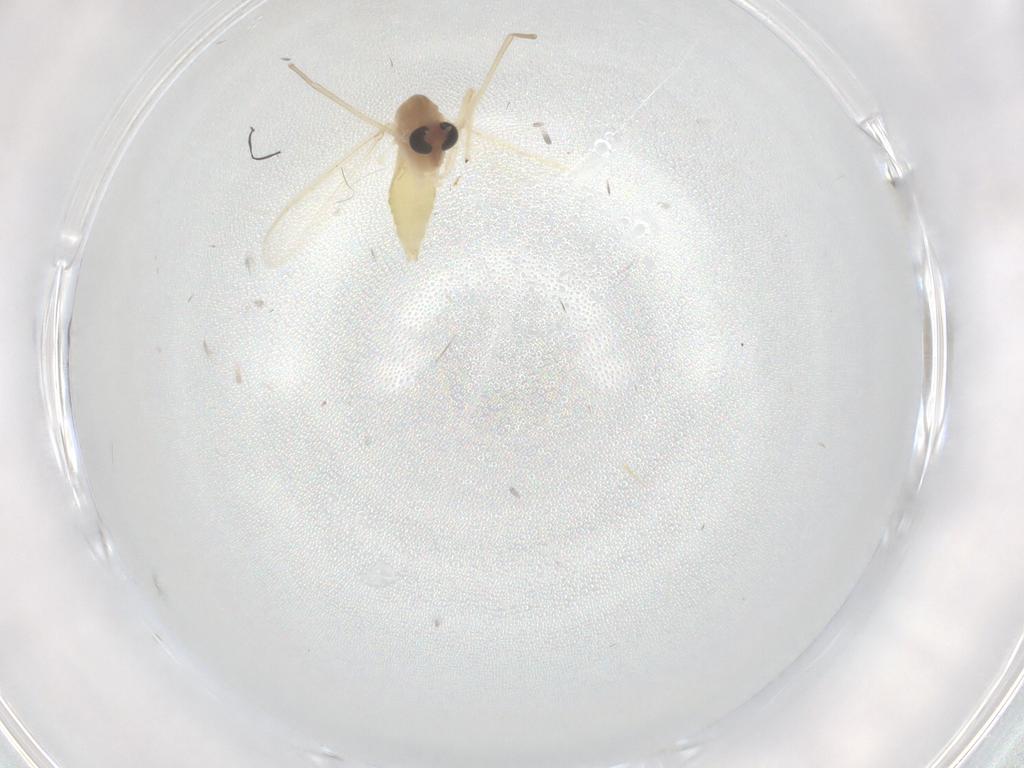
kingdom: Animalia
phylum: Arthropoda
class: Insecta
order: Diptera
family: Chironomidae
